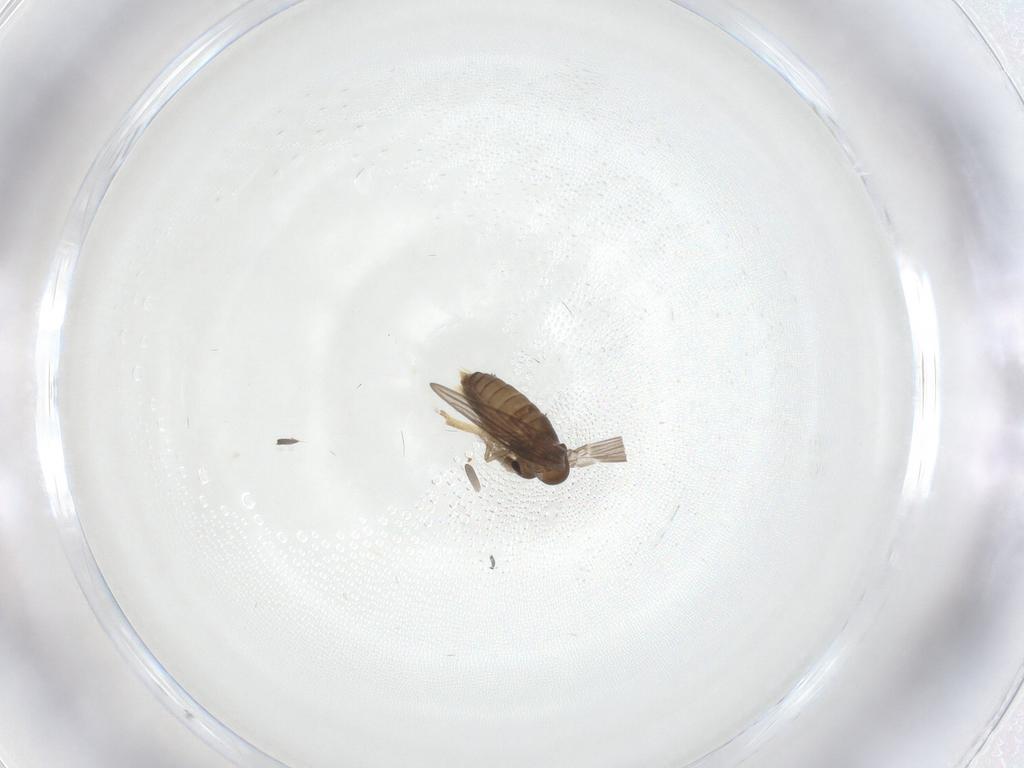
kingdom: Animalia
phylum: Arthropoda
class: Insecta
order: Diptera
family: Psychodidae
